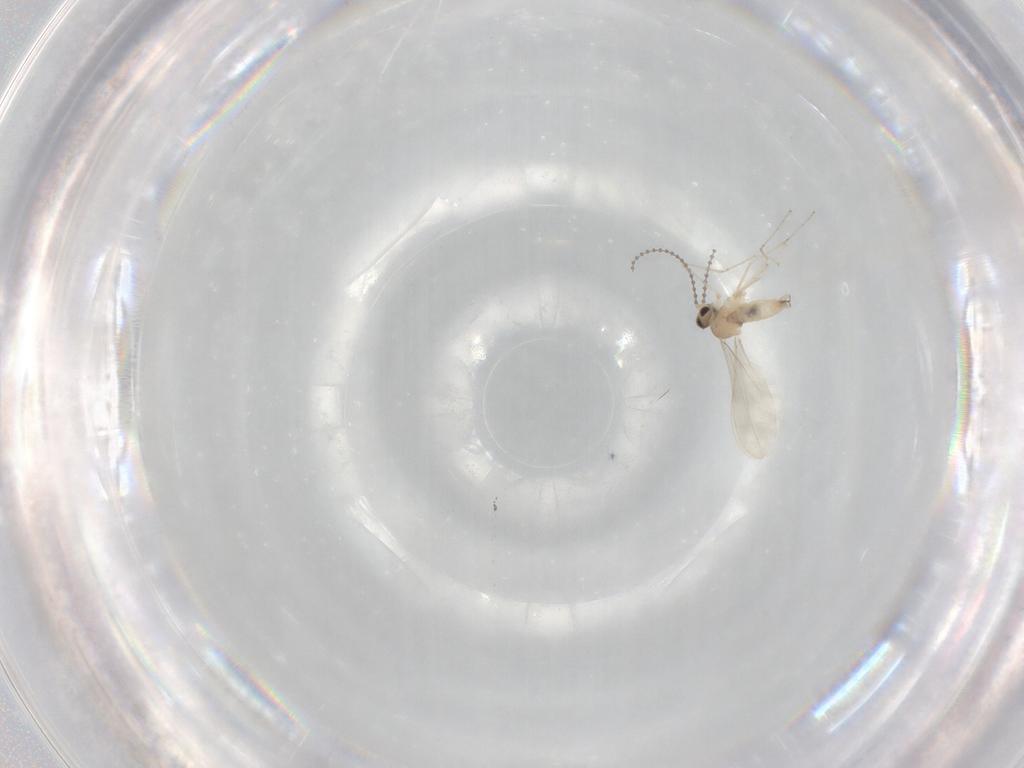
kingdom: Animalia
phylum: Arthropoda
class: Insecta
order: Diptera
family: Cecidomyiidae
